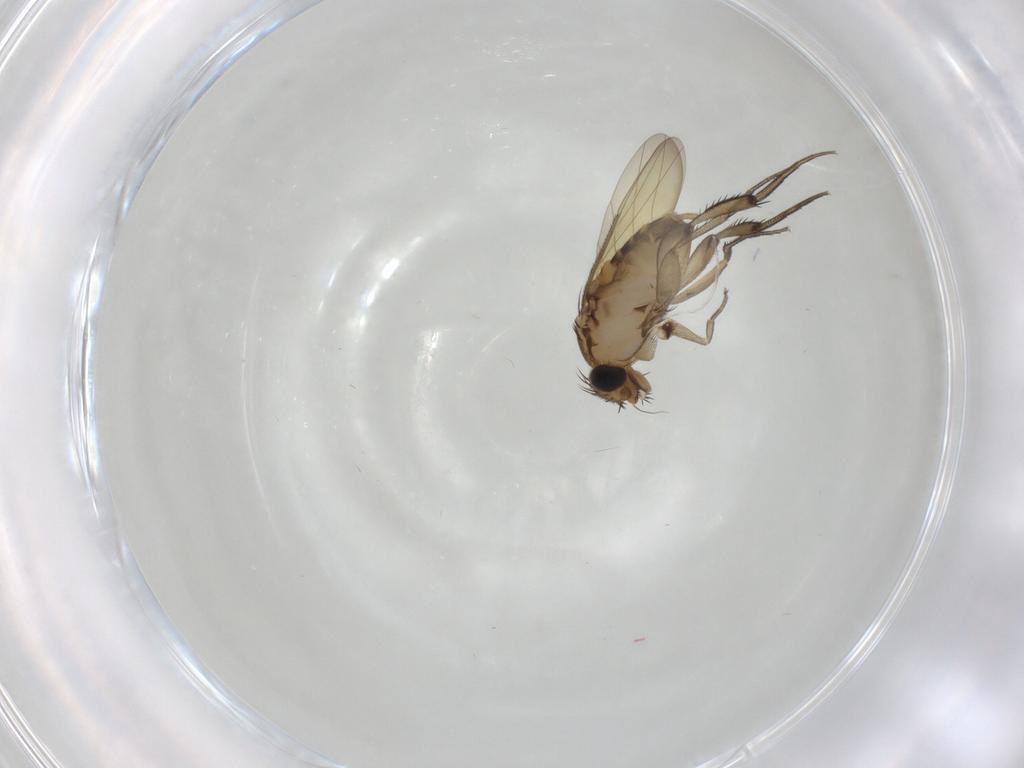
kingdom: Animalia
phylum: Arthropoda
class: Insecta
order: Diptera
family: Phoridae
